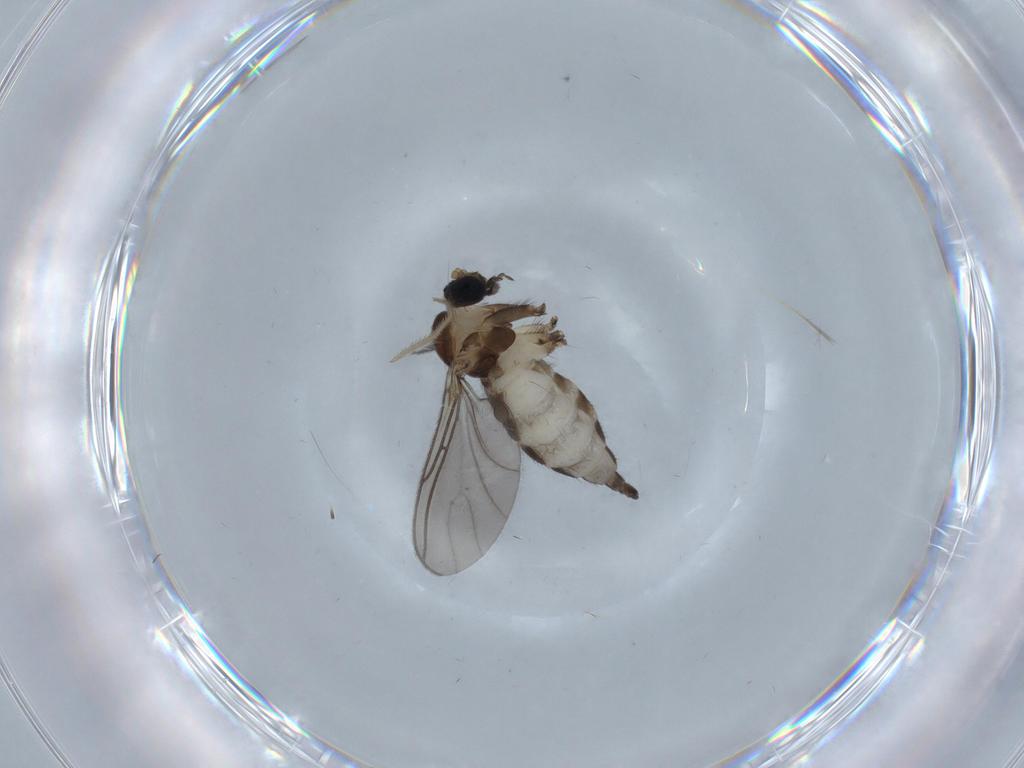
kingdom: Animalia
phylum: Arthropoda
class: Insecta
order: Diptera
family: Sciaridae
